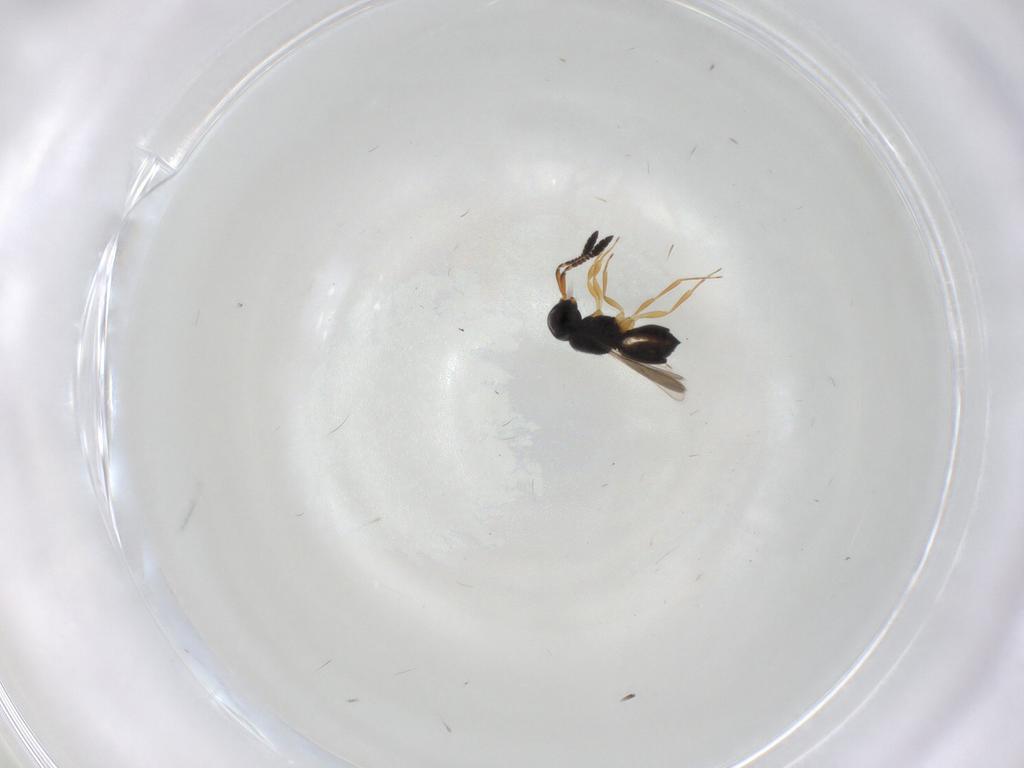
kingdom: Animalia
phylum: Arthropoda
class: Insecta
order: Hymenoptera
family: Scelionidae
